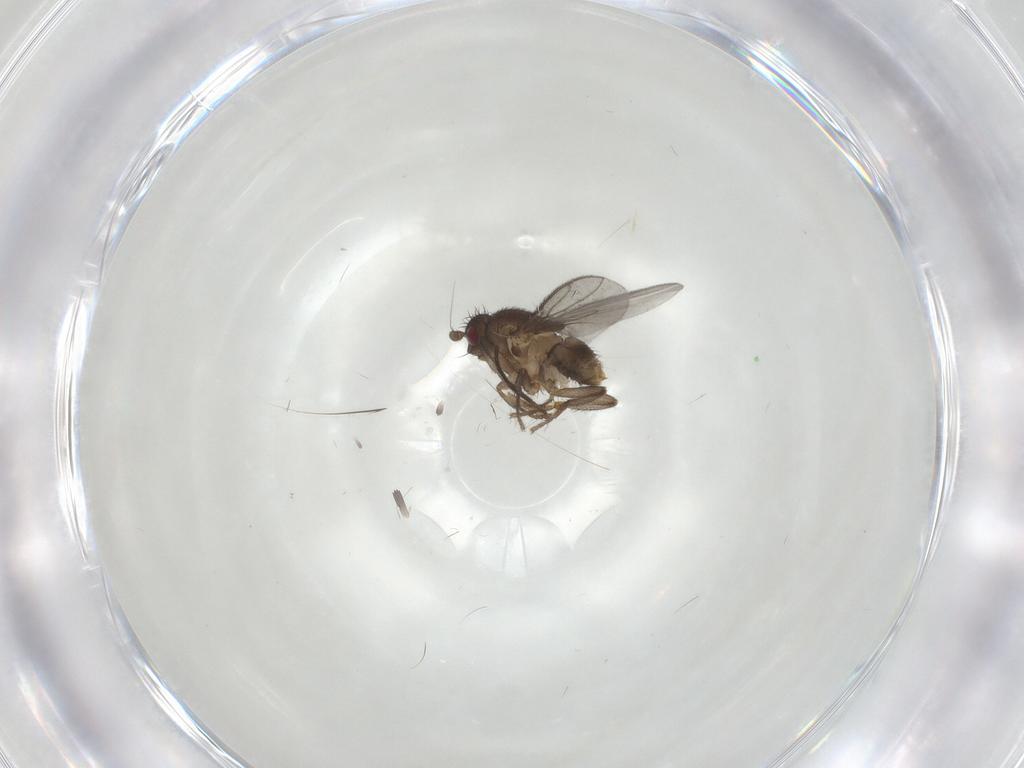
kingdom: Animalia
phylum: Arthropoda
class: Insecta
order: Diptera
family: Sciaridae
